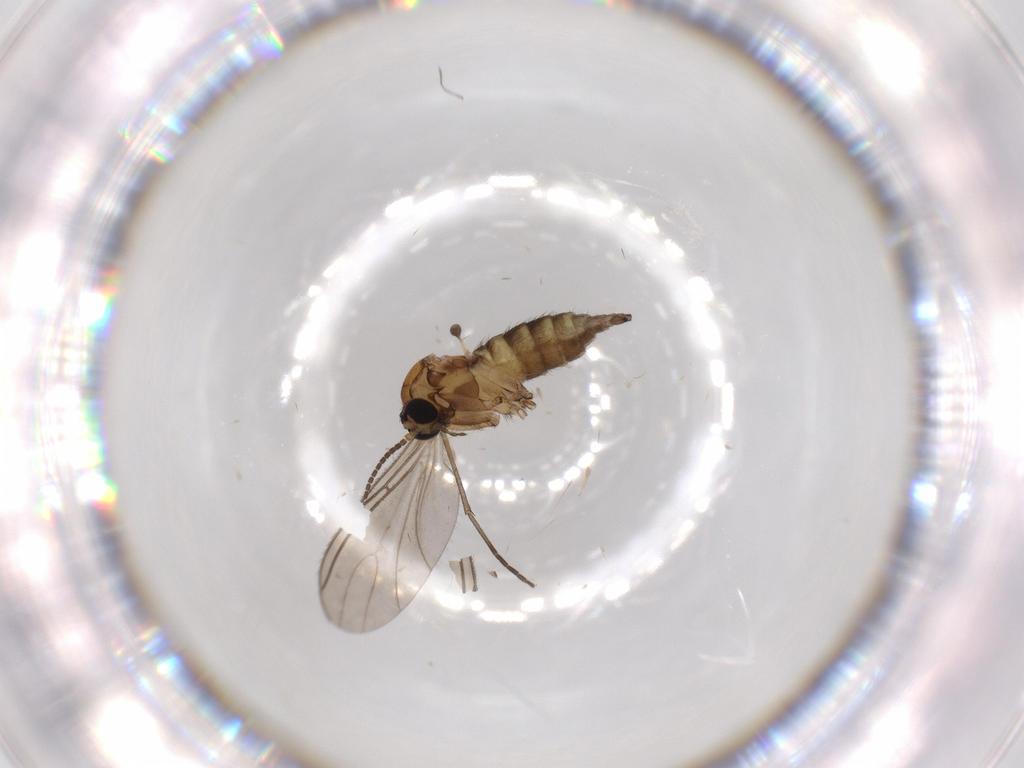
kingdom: Animalia
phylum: Arthropoda
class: Insecta
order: Diptera
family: Sciaridae
